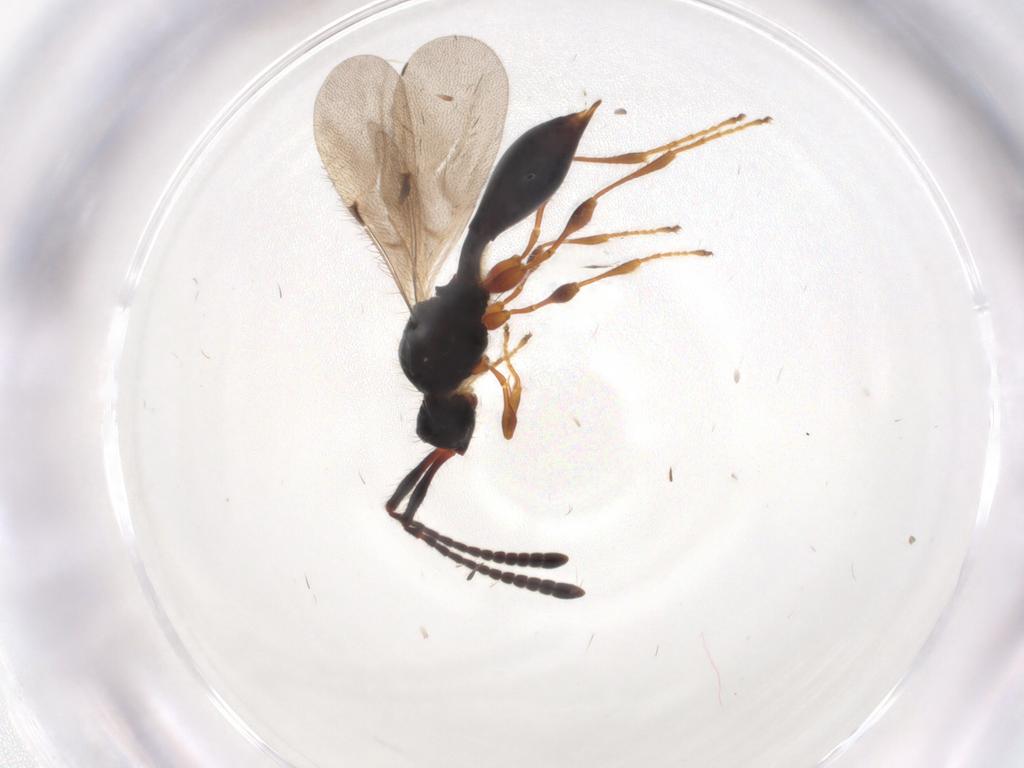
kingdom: Animalia
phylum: Arthropoda
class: Insecta
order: Hymenoptera
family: Diapriidae
